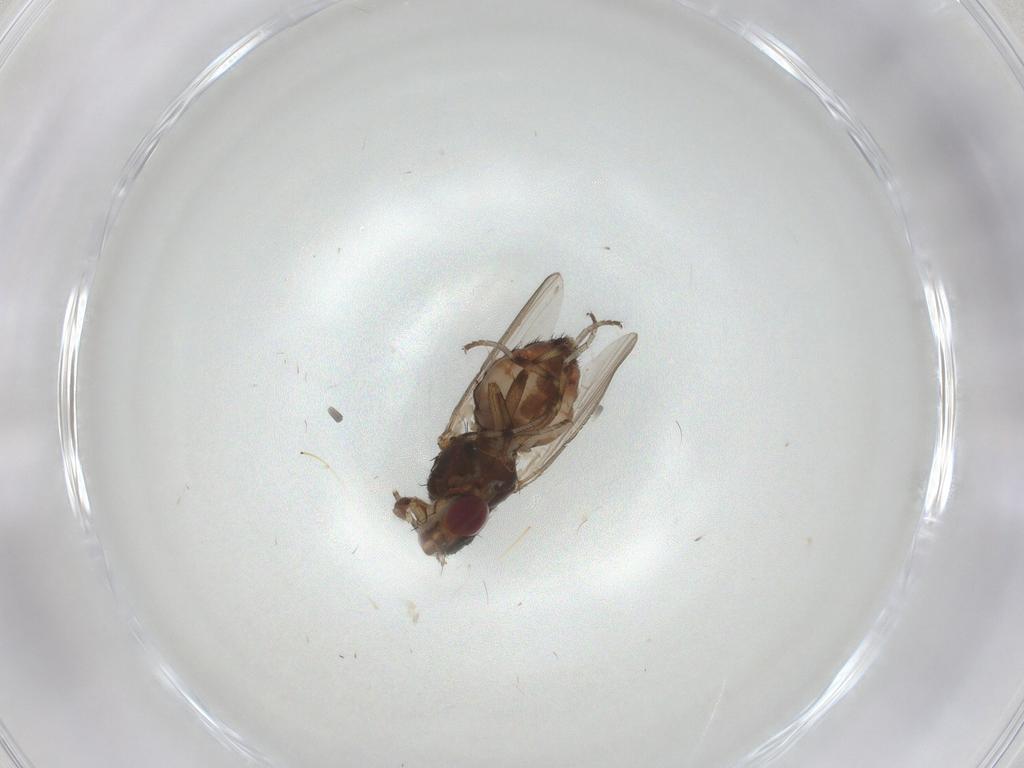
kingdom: Animalia
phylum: Arthropoda
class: Insecta
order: Diptera
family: Heleomyzidae
